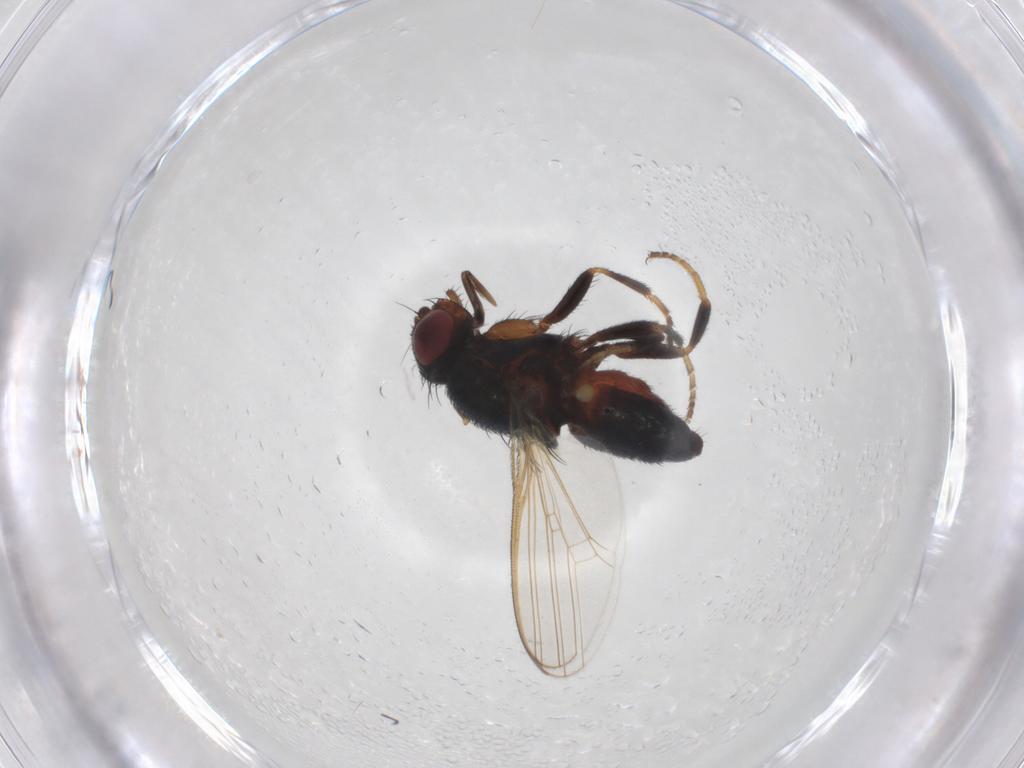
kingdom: Animalia
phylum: Arthropoda
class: Insecta
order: Diptera
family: Milichiidae
